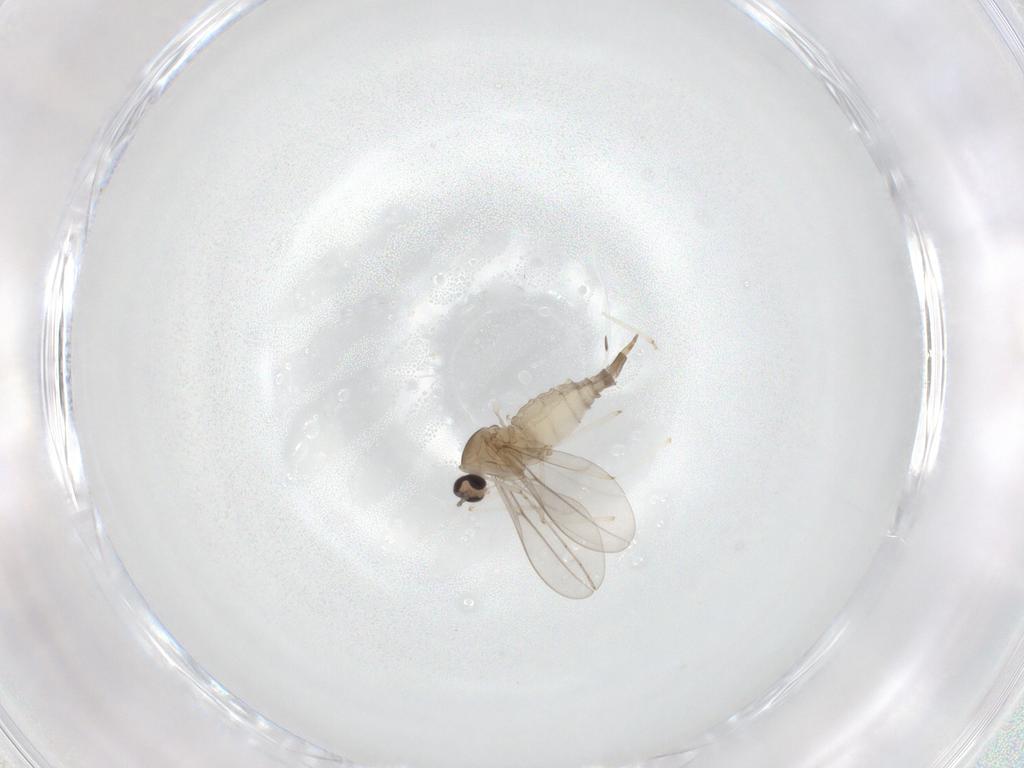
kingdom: Animalia
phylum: Arthropoda
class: Insecta
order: Diptera
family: Cecidomyiidae
